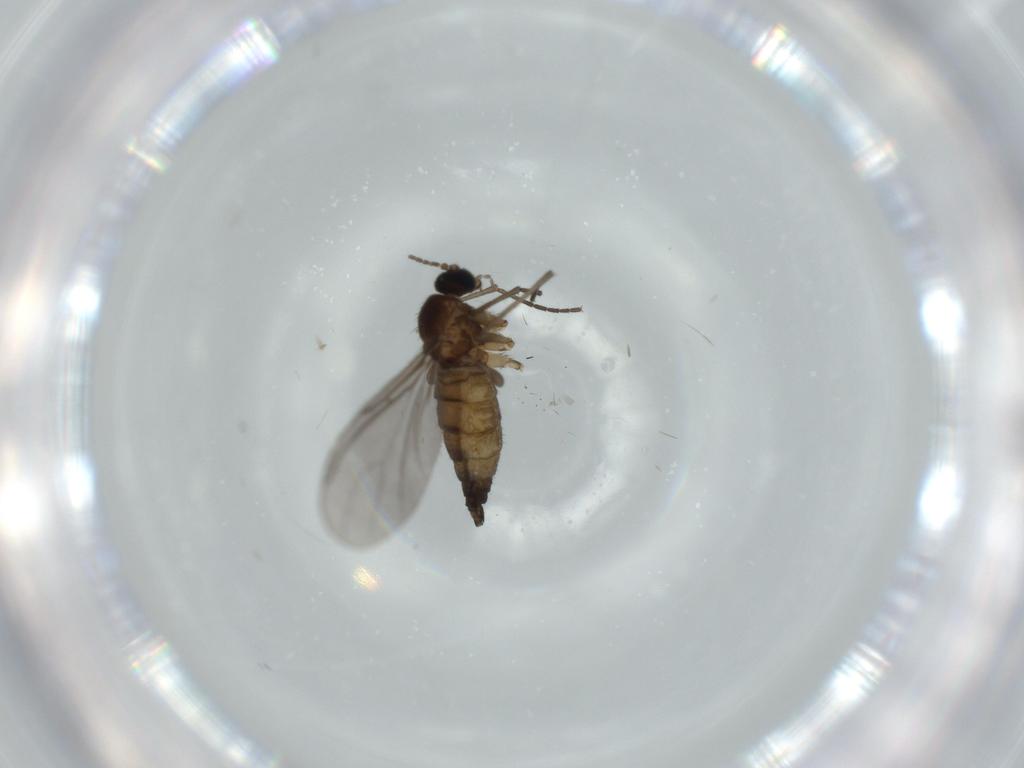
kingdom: Animalia
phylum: Arthropoda
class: Insecta
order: Diptera
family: Sciaridae
